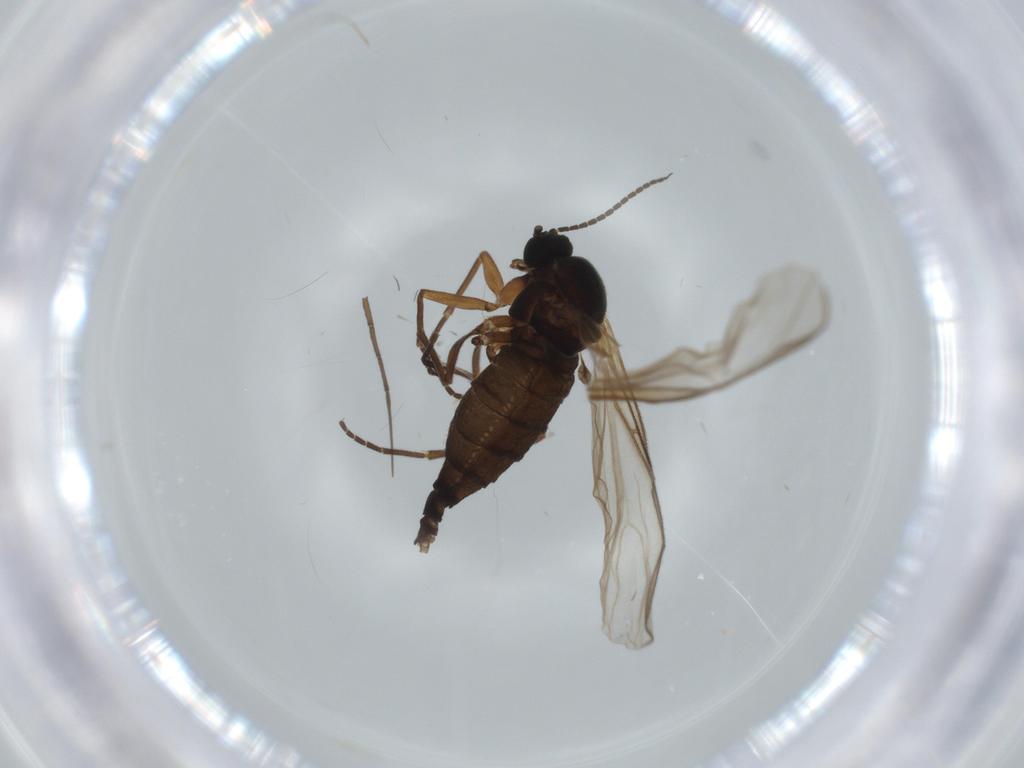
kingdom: Animalia
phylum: Arthropoda
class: Insecta
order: Diptera
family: Sciaridae
